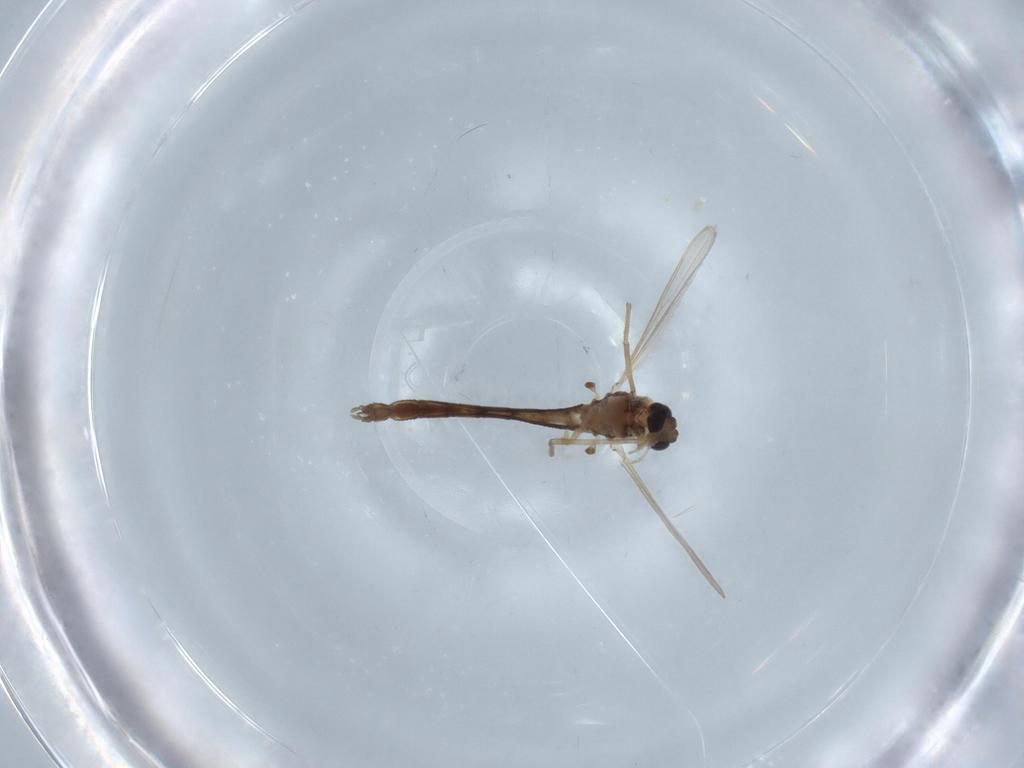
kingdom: Animalia
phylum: Arthropoda
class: Insecta
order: Diptera
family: Chironomidae
